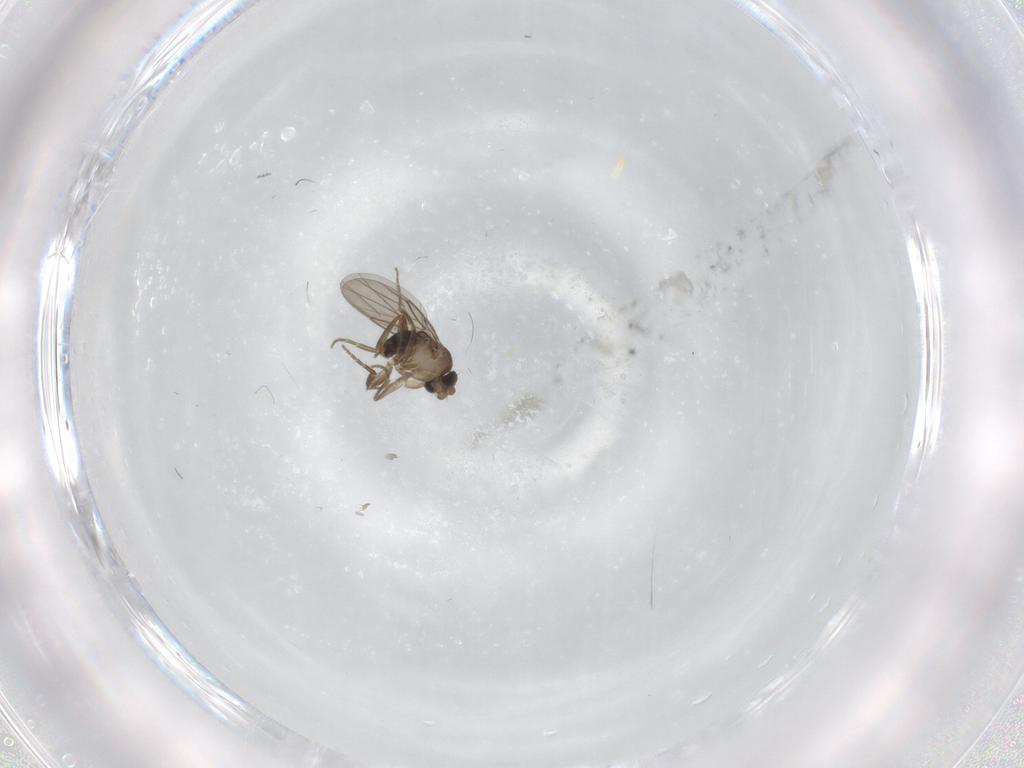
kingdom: Animalia
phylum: Arthropoda
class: Insecta
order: Diptera
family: Phoridae
